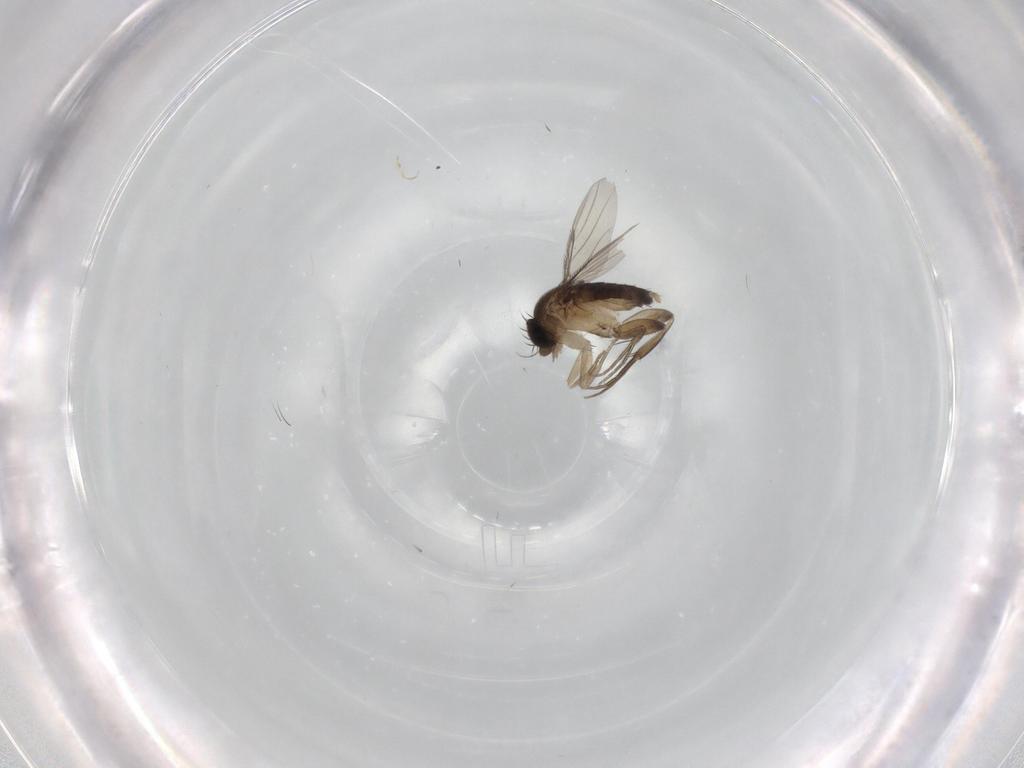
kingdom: Animalia
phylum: Arthropoda
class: Insecta
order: Diptera
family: Phoridae
